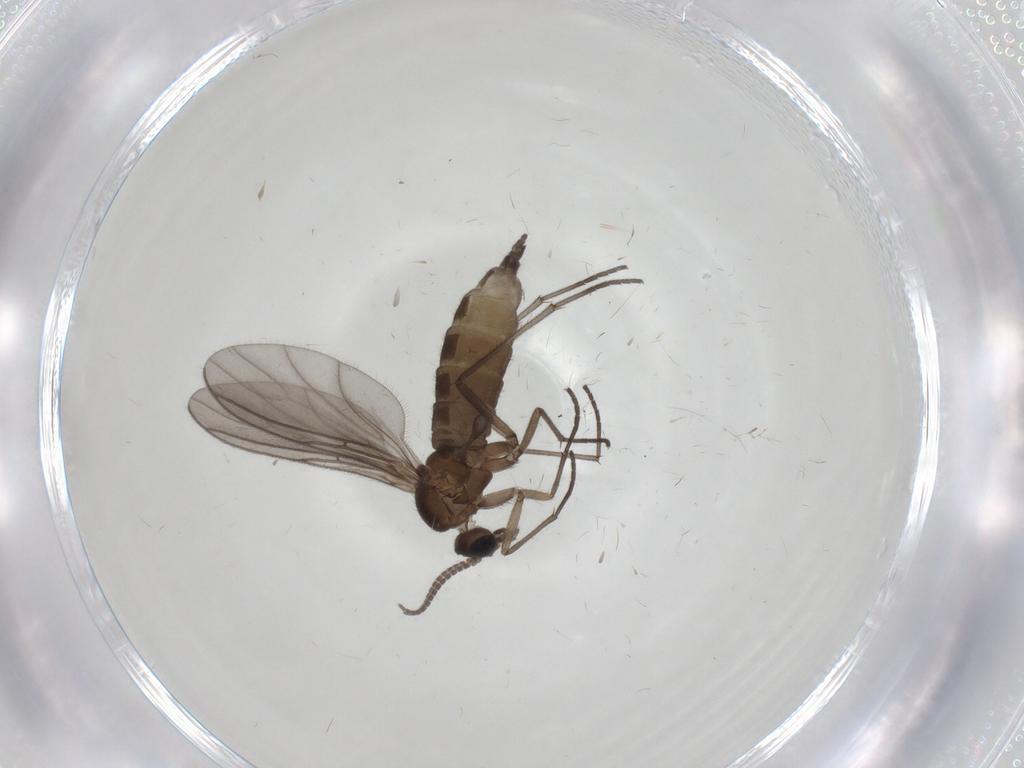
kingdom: Animalia
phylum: Arthropoda
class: Insecta
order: Diptera
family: Sciaridae
